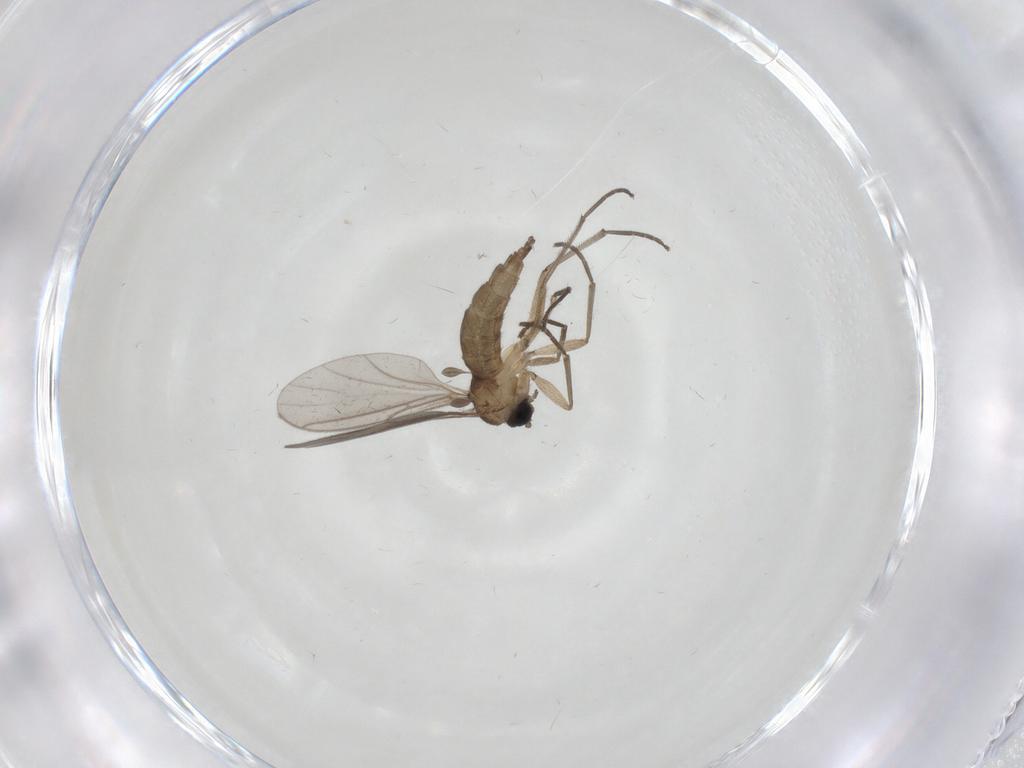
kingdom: Animalia
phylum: Arthropoda
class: Insecta
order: Diptera
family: Sciaridae
